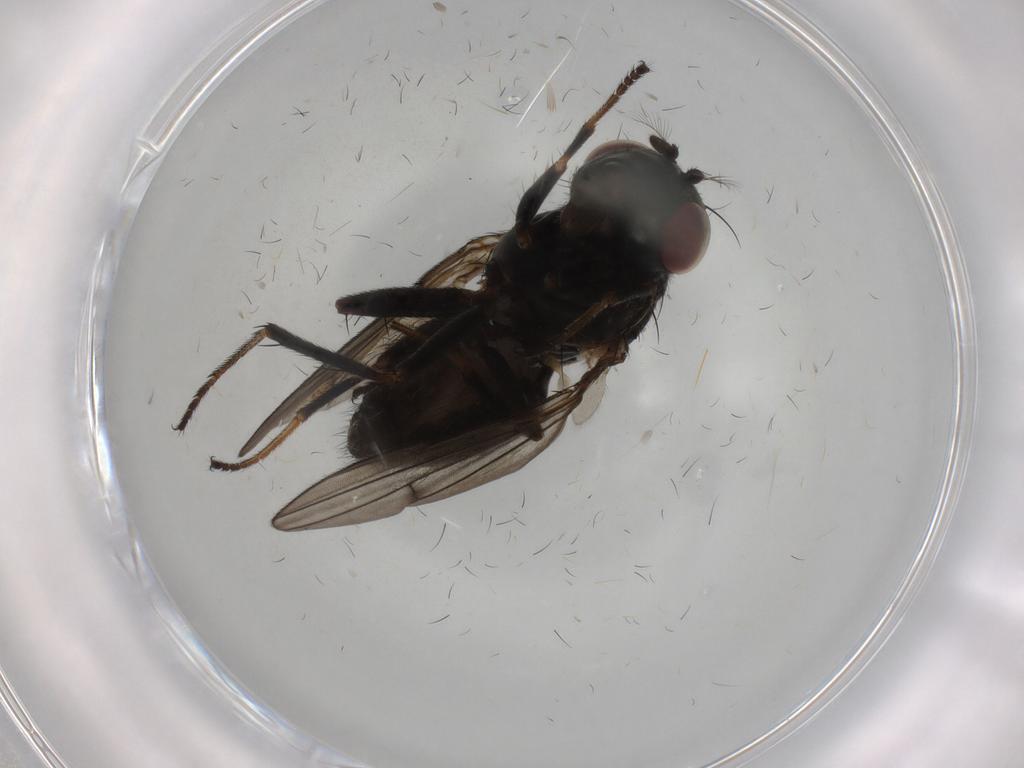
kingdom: Animalia
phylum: Arthropoda
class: Insecta
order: Diptera
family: Ephydridae
